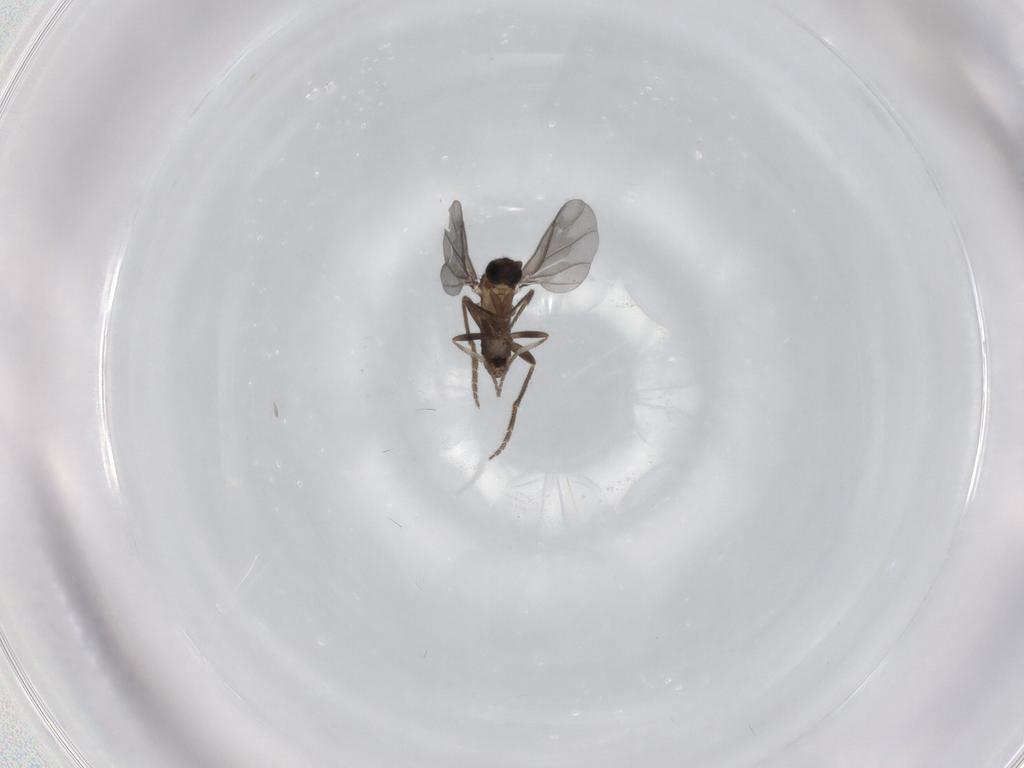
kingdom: Animalia
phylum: Arthropoda
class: Insecta
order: Diptera
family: Phoridae
